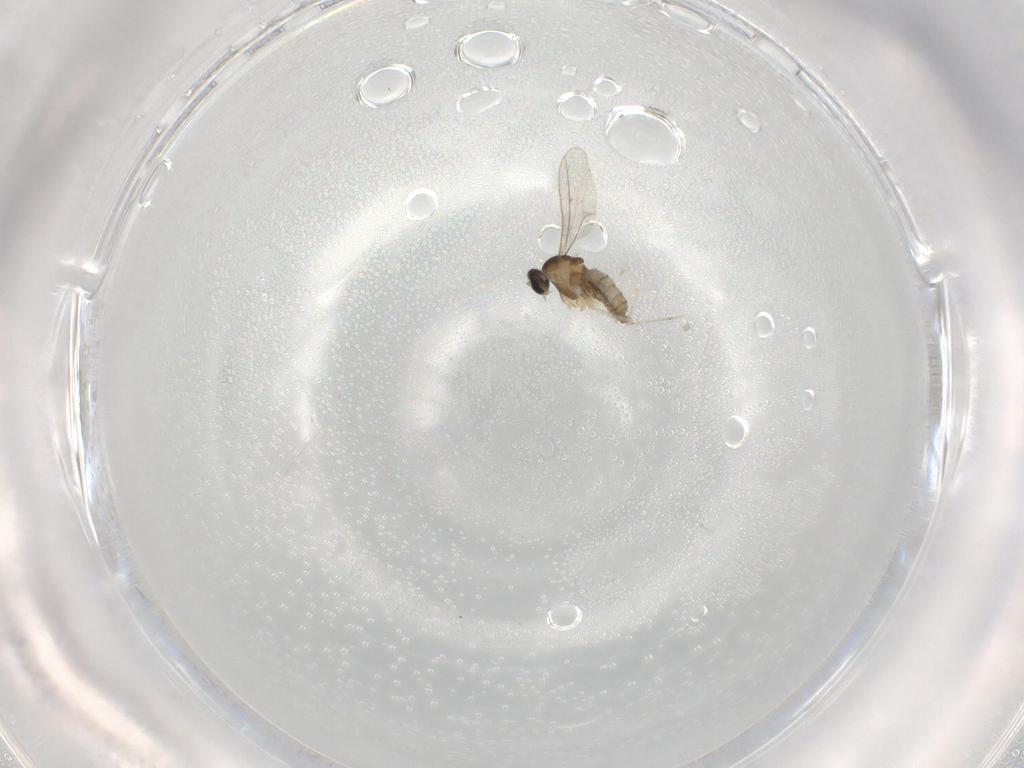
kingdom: Animalia
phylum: Arthropoda
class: Insecta
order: Diptera
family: Cecidomyiidae
